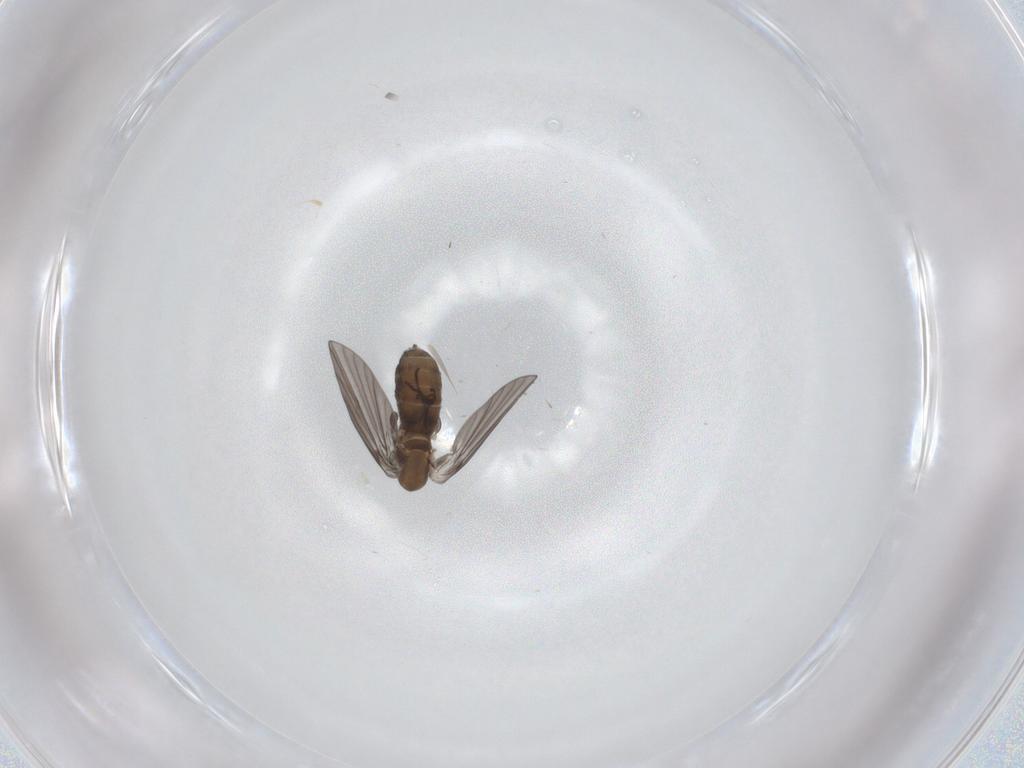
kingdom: Animalia
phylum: Arthropoda
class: Insecta
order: Diptera
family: Psychodidae
